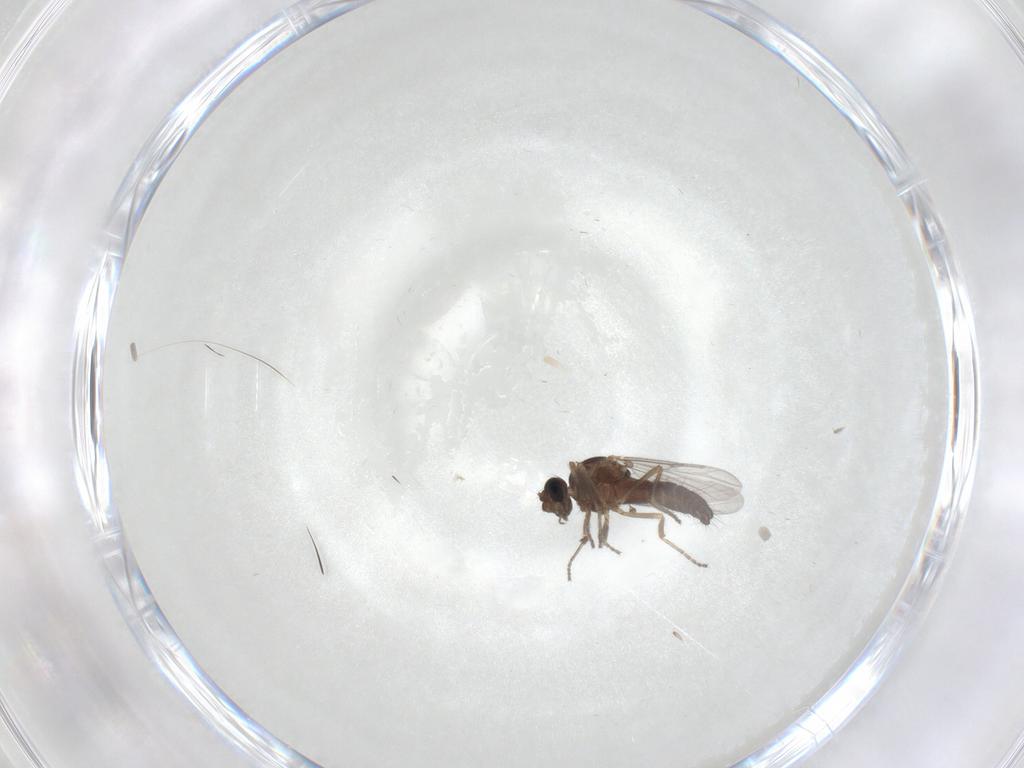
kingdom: Animalia
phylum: Arthropoda
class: Insecta
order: Diptera
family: Ceratopogonidae
